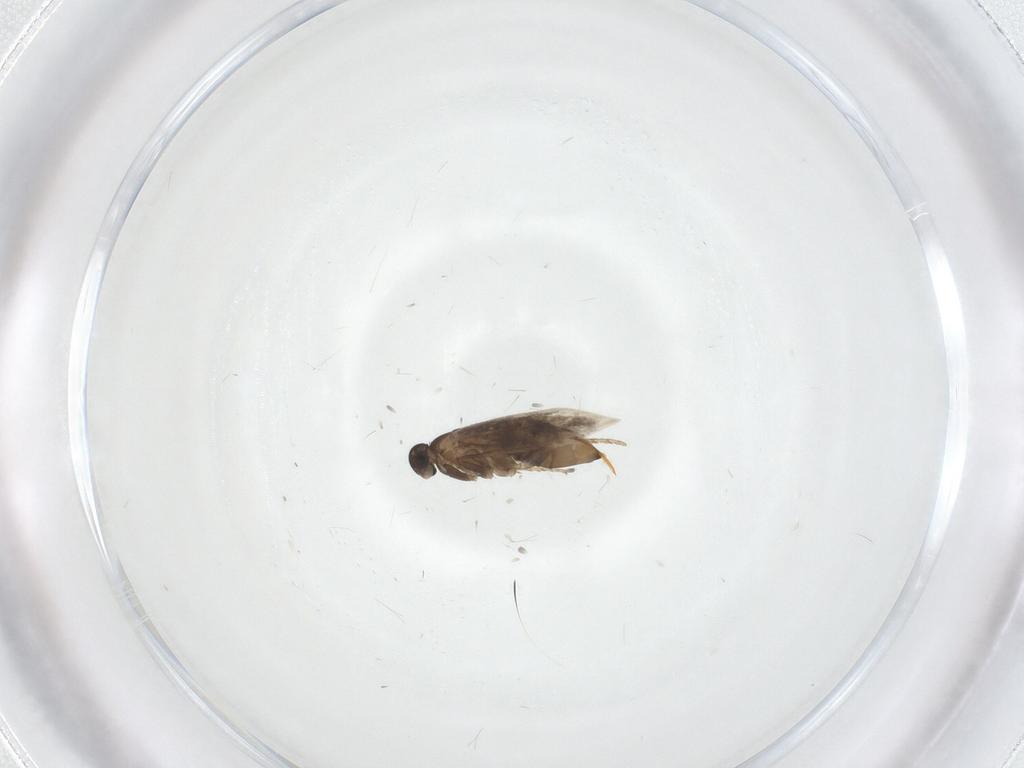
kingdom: Animalia
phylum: Arthropoda
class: Insecta
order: Lepidoptera
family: Heliozelidae
